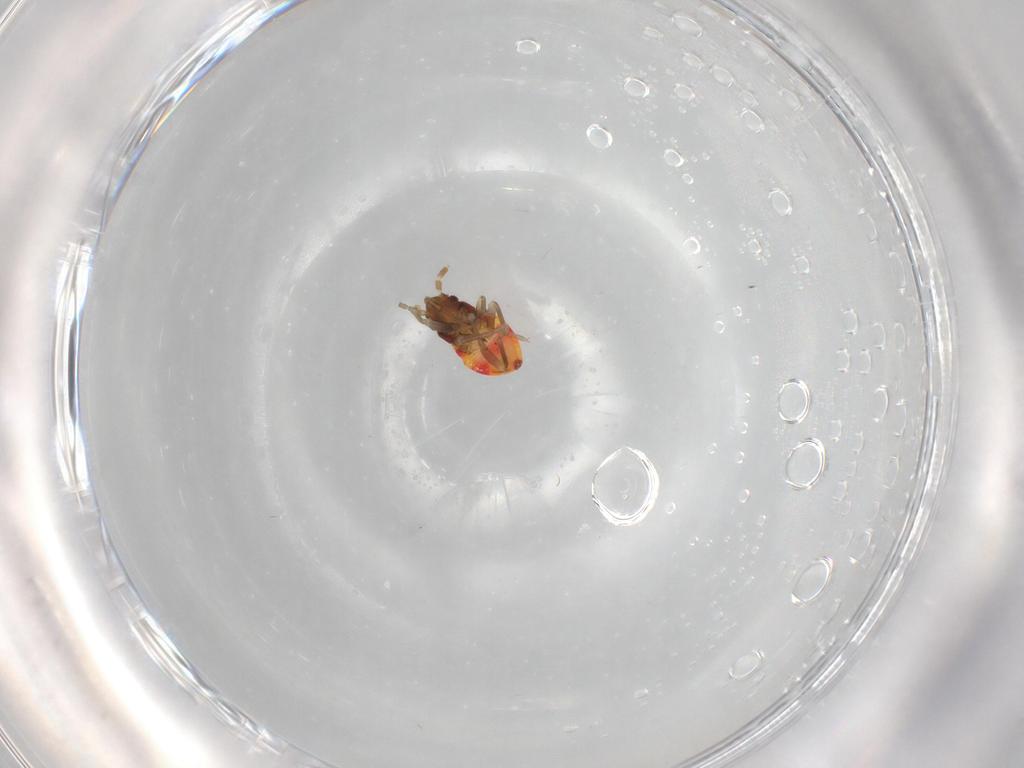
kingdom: Animalia
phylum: Arthropoda
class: Insecta
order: Hemiptera
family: Rhyparochromidae
